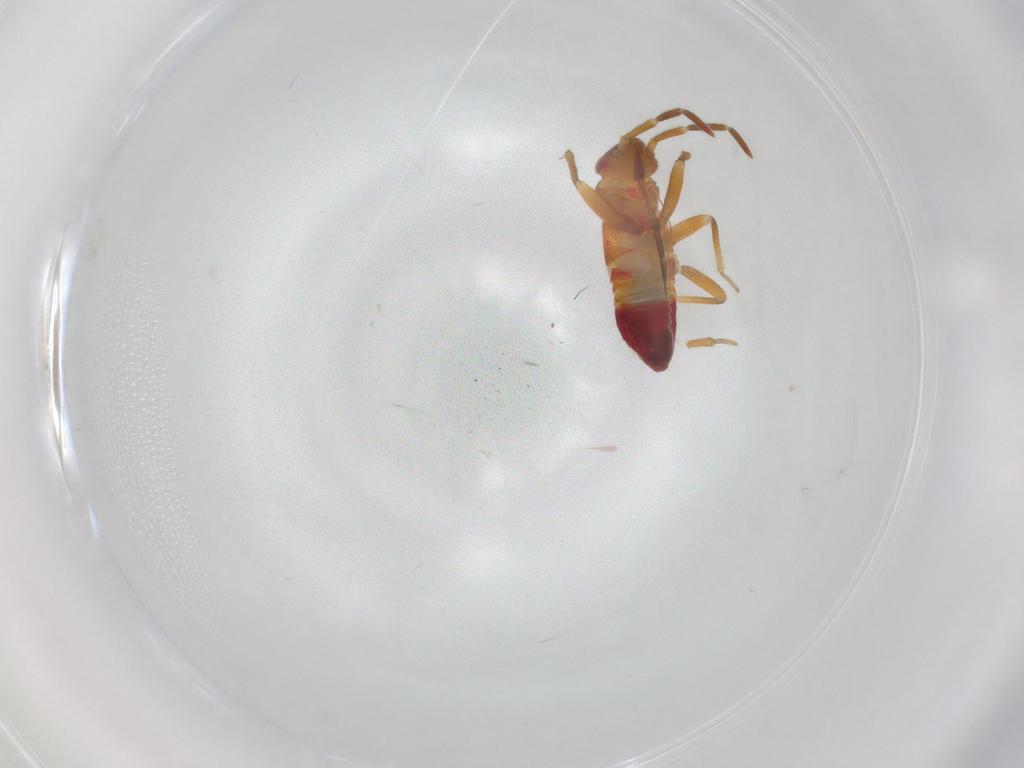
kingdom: Animalia
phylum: Arthropoda
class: Insecta
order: Hemiptera
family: Miridae
